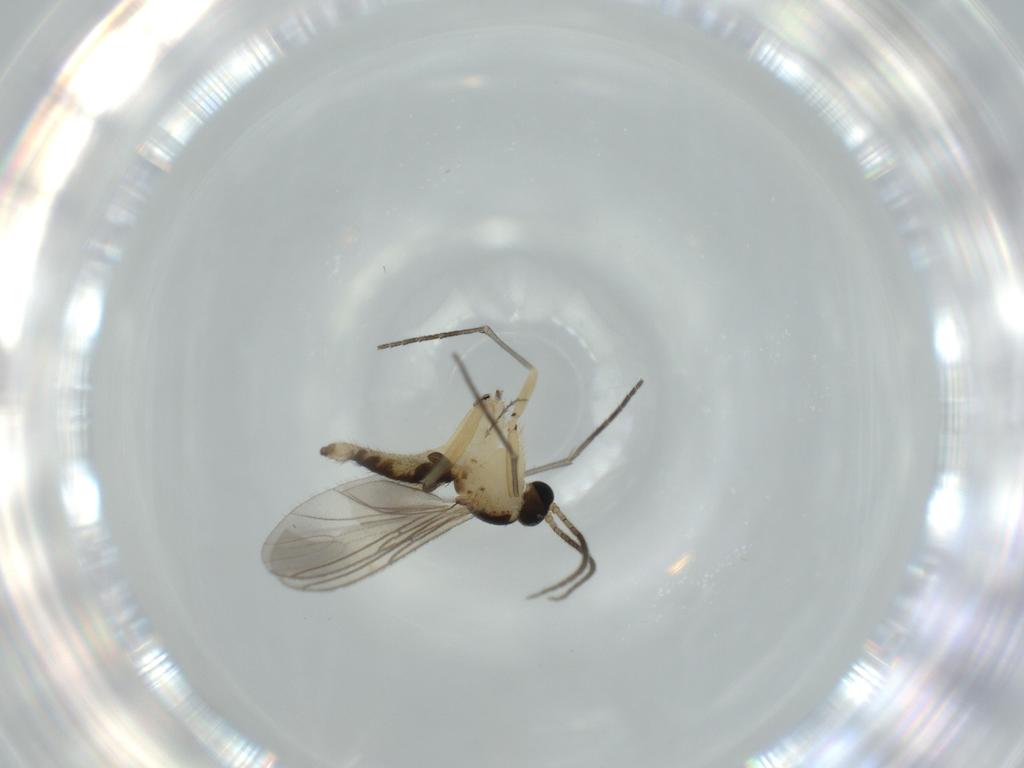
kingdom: Animalia
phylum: Arthropoda
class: Insecta
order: Diptera
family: Sciaridae
